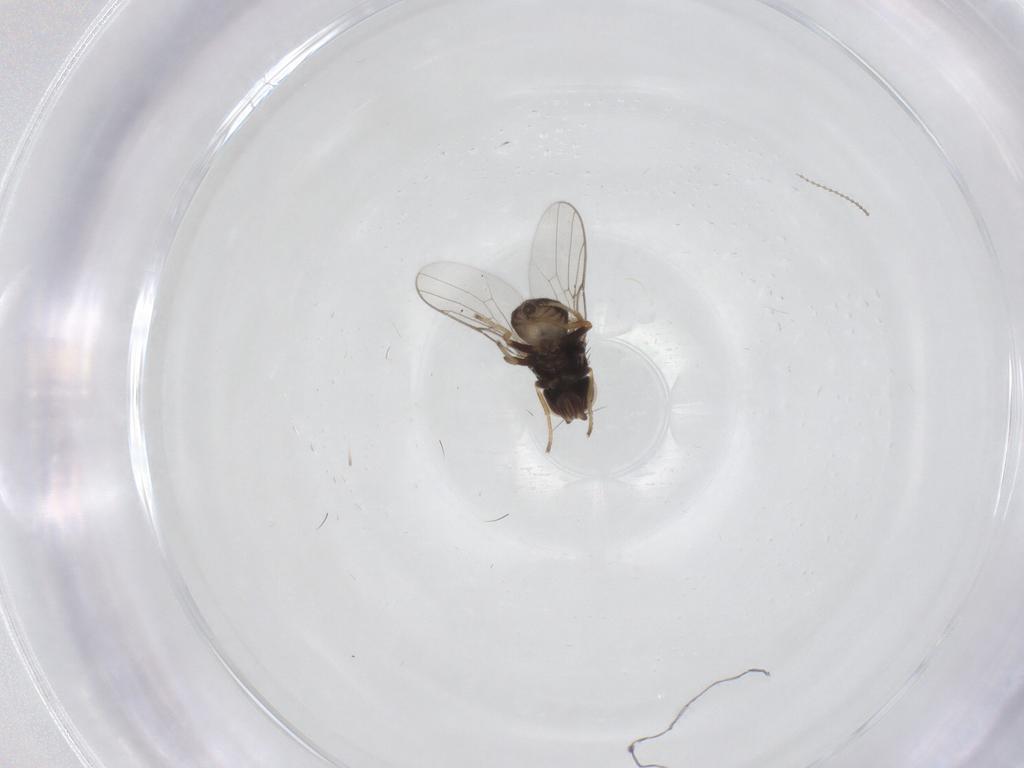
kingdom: Animalia
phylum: Arthropoda
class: Insecta
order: Diptera
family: Chloropidae
